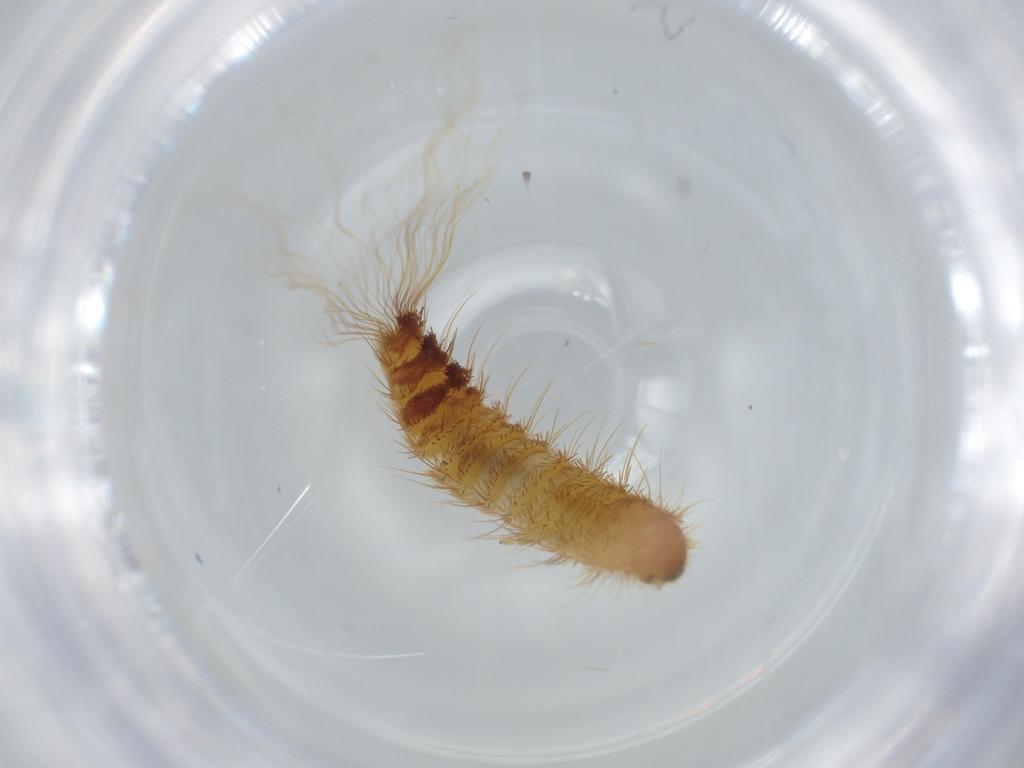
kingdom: Animalia
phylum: Arthropoda
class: Insecta
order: Coleoptera
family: Dermestidae
